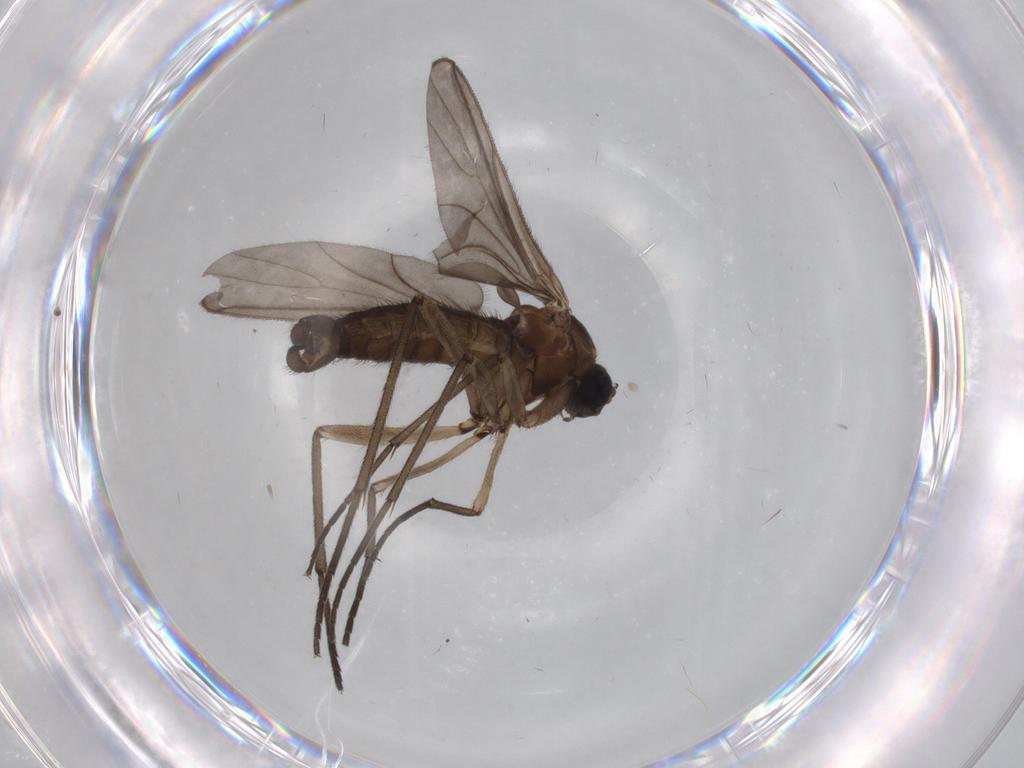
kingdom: Animalia
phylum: Arthropoda
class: Insecta
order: Diptera
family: Sciaridae
